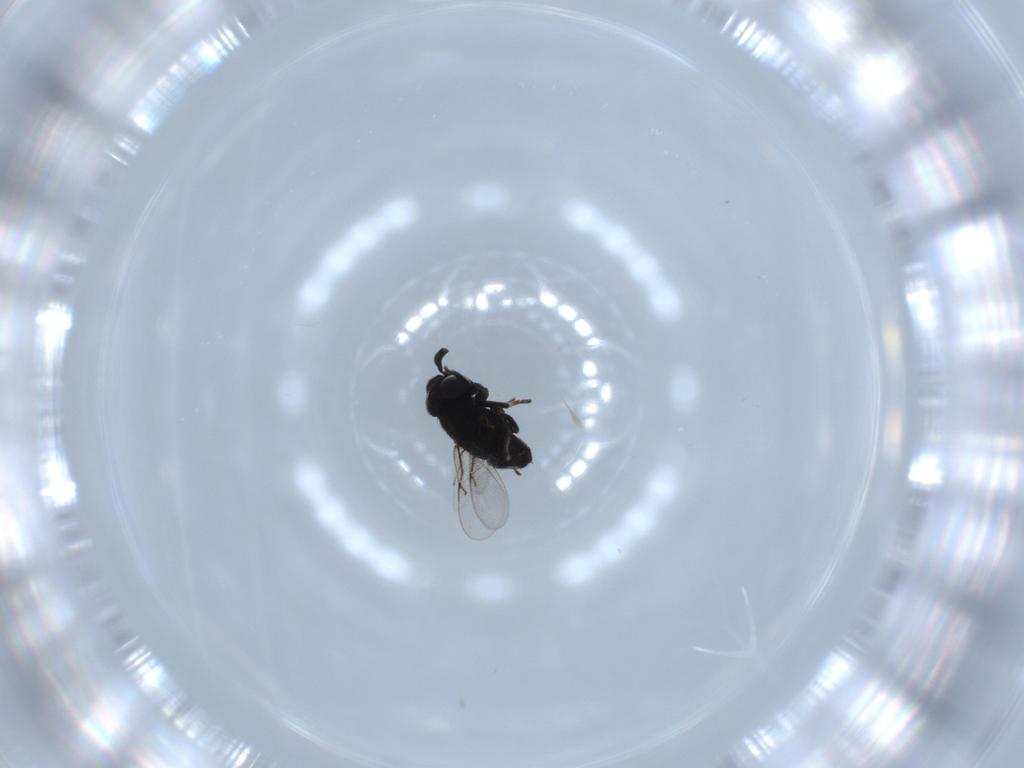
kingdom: Animalia
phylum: Arthropoda
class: Insecta
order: Hymenoptera
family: Encyrtidae
